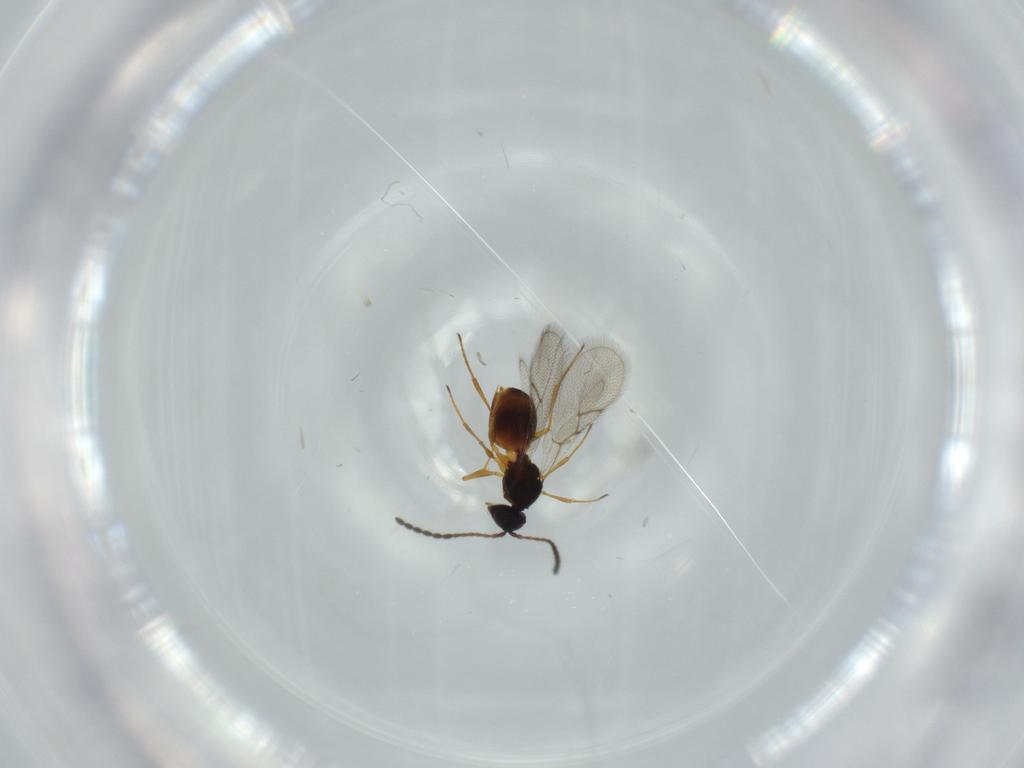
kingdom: Animalia
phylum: Arthropoda
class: Insecta
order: Hymenoptera
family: Figitidae
